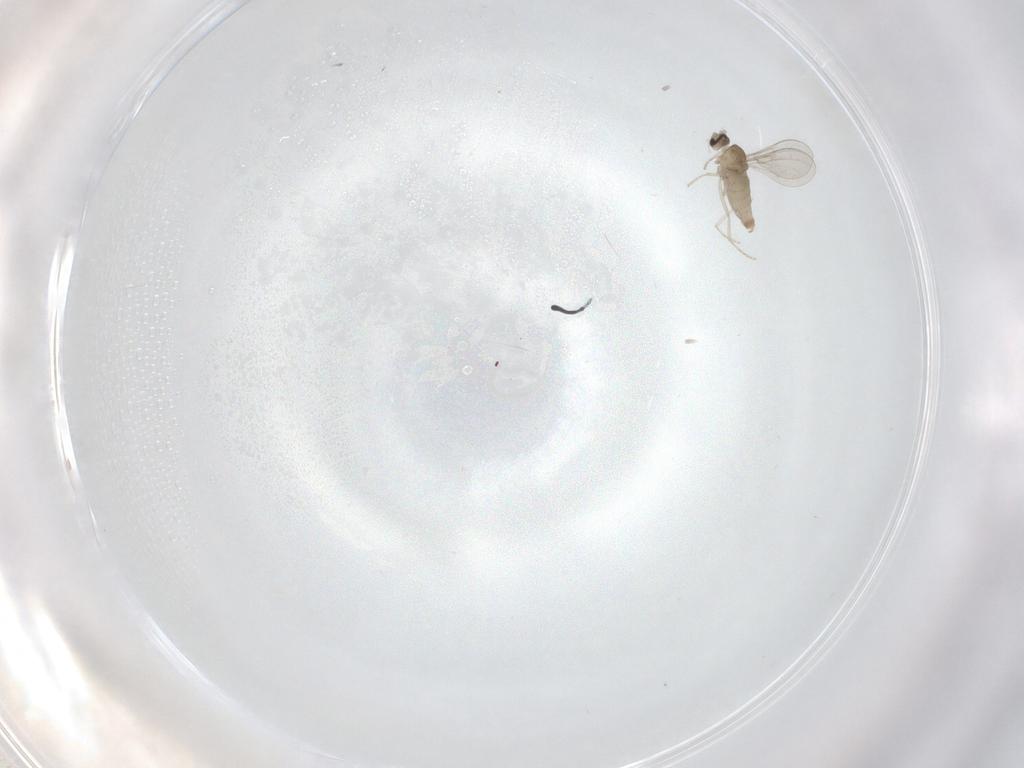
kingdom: Animalia
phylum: Arthropoda
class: Insecta
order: Diptera
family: Cecidomyiidae
